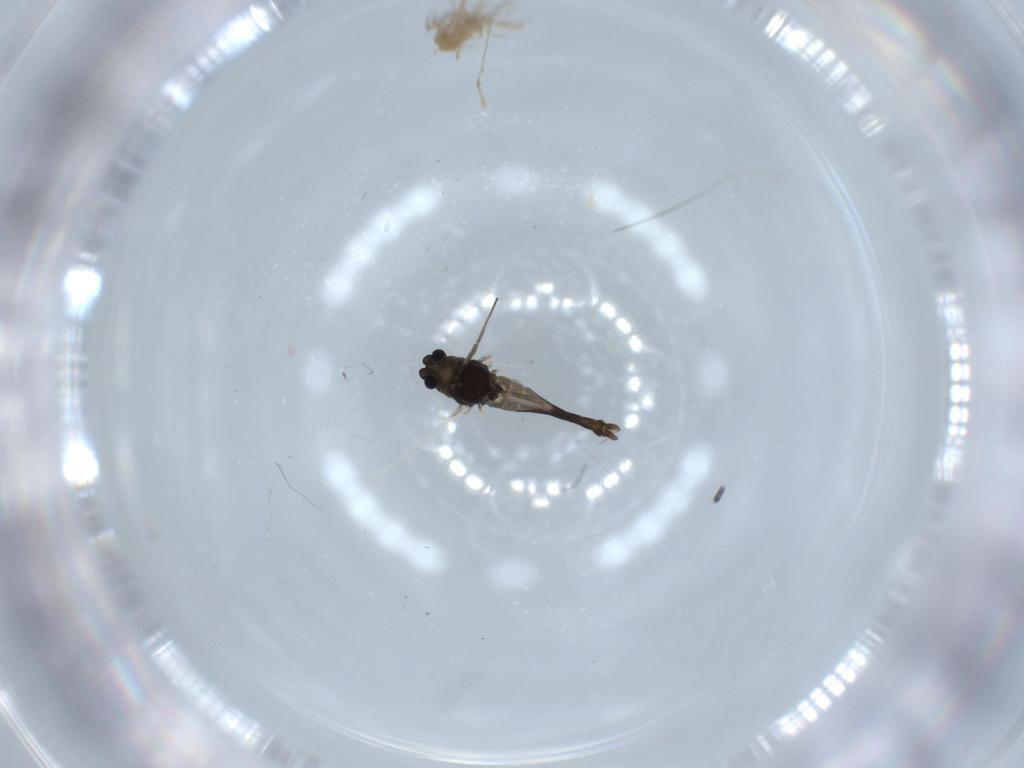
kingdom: Animalia
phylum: Arthropoda
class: Insecta
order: Diptera
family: Chironomidae
